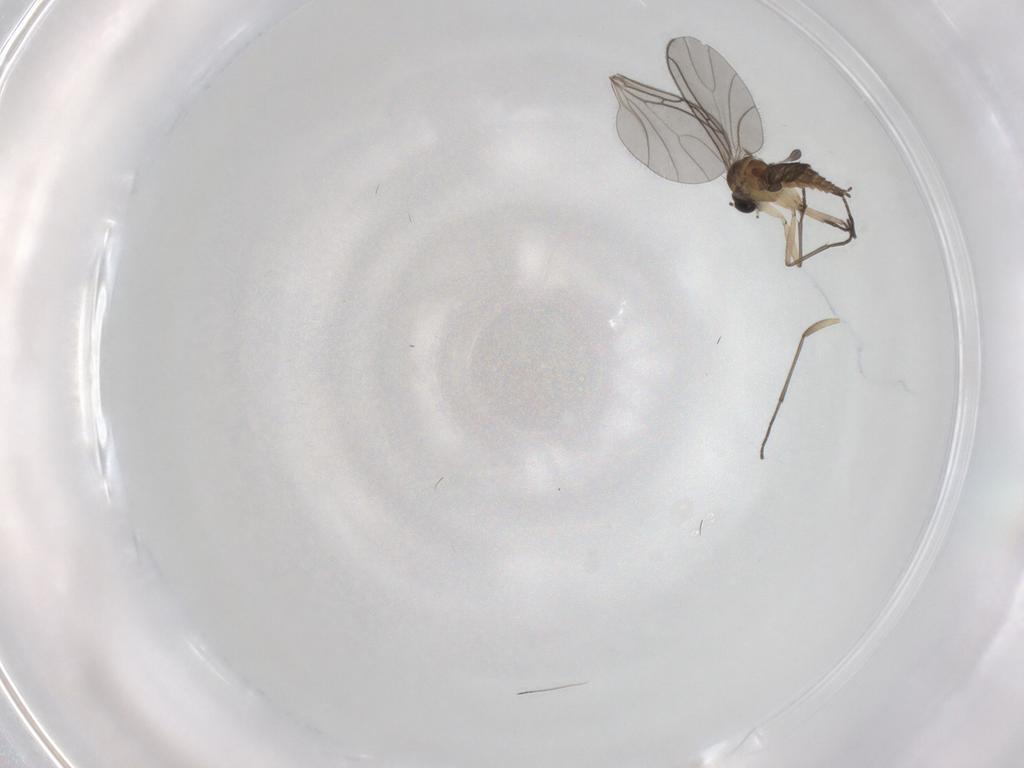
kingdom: Animalia
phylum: Arthropoda
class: Insecta
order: Diptera
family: Sciaridae
